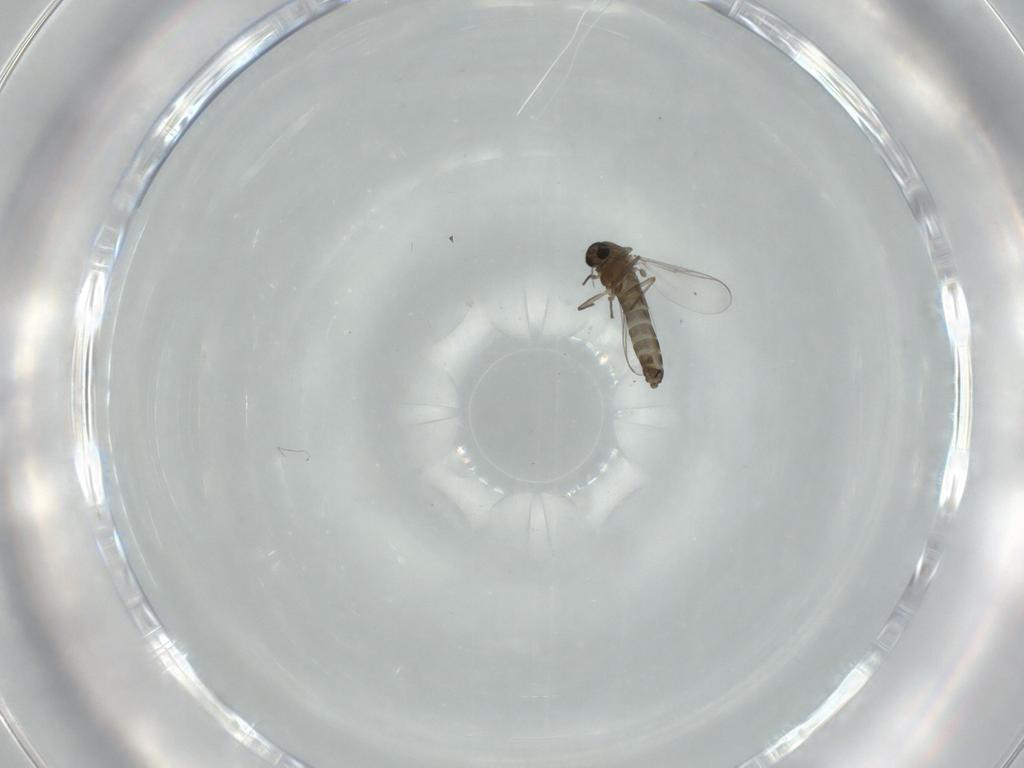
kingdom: Animalia
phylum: Arthropoda
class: Insecta
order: Diptera
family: Chironomidae
